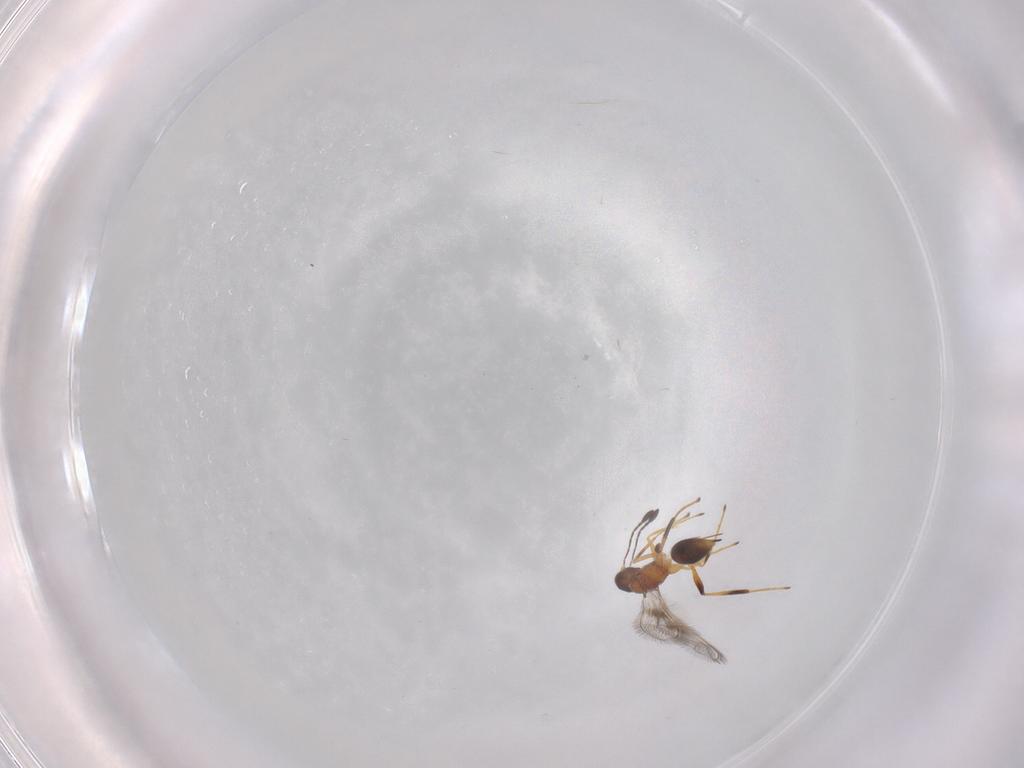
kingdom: Animalia
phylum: Arthropoda
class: Insecta
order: Hymenoptera
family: Mymaridae
